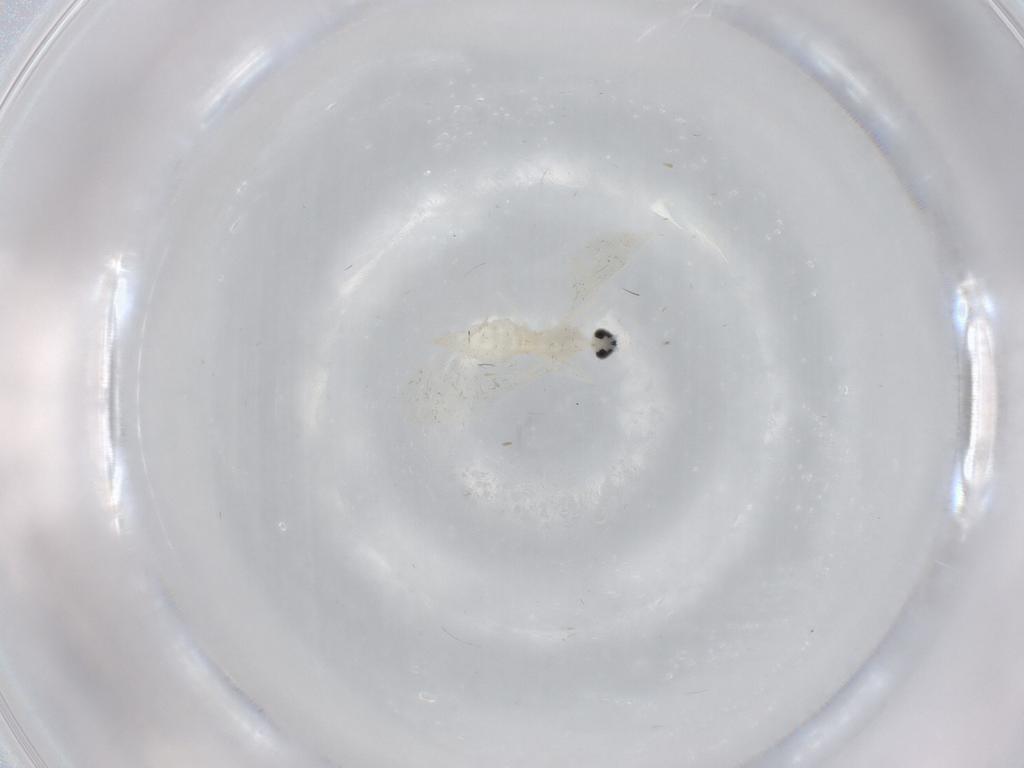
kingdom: Animalia
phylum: Arthropoda
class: Insecta
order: Diptera
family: Cecidomyiidae
